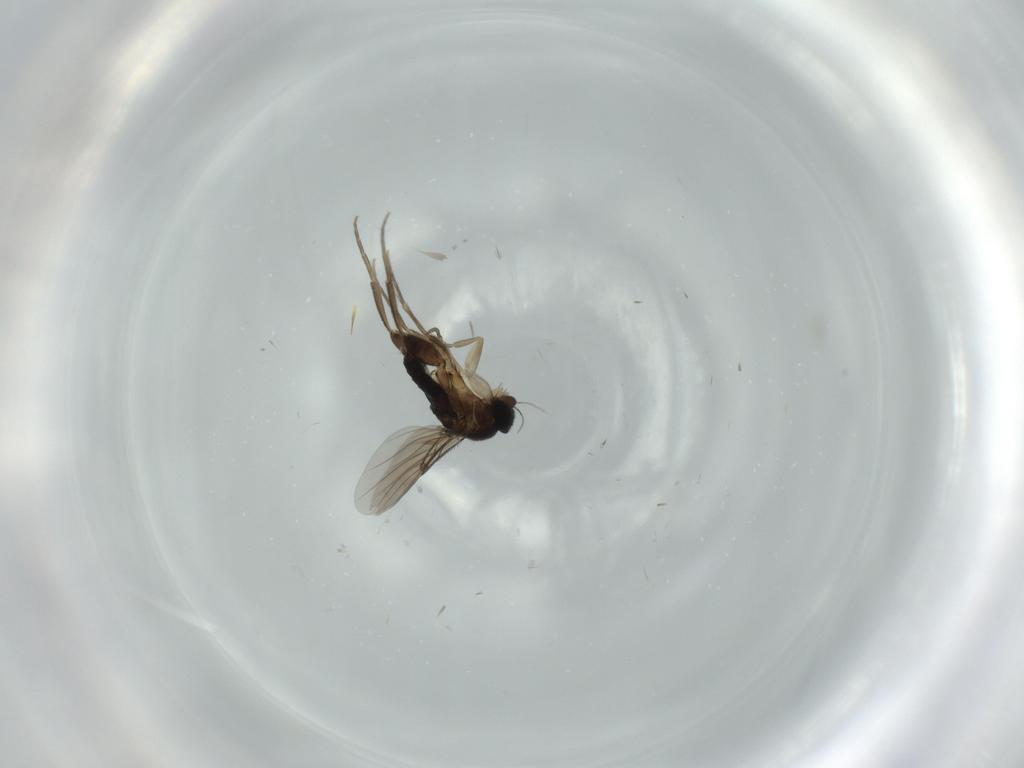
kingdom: Animalia
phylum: Arthropoda
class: Insecta
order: Diptera
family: Phoridae
